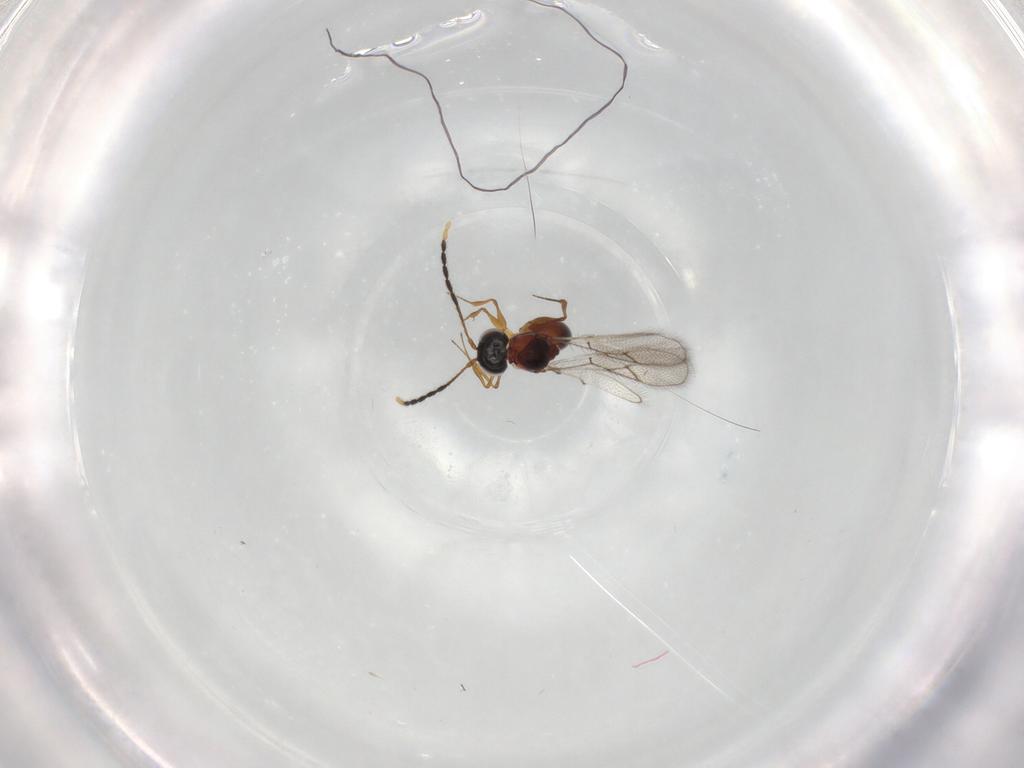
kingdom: Animalia
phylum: Arthropoda
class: Insecta
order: Hymenoptera
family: Figitidae
